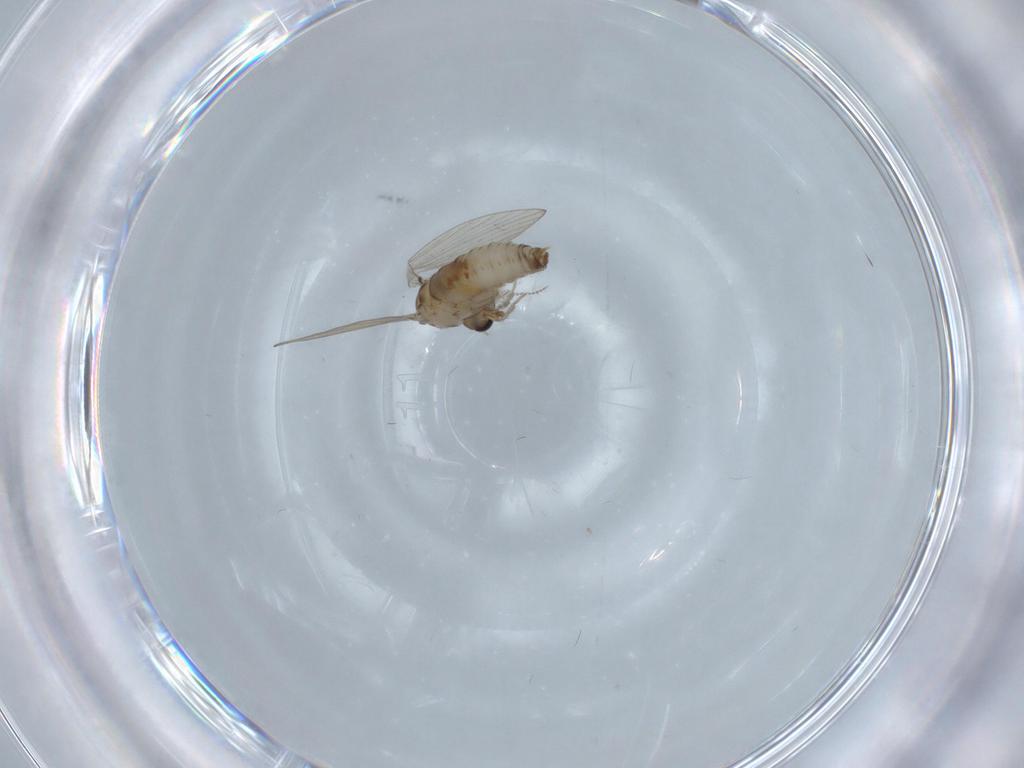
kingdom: Animalia
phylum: Arthropoda
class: Insecta
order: Diptera
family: Psychodidae
